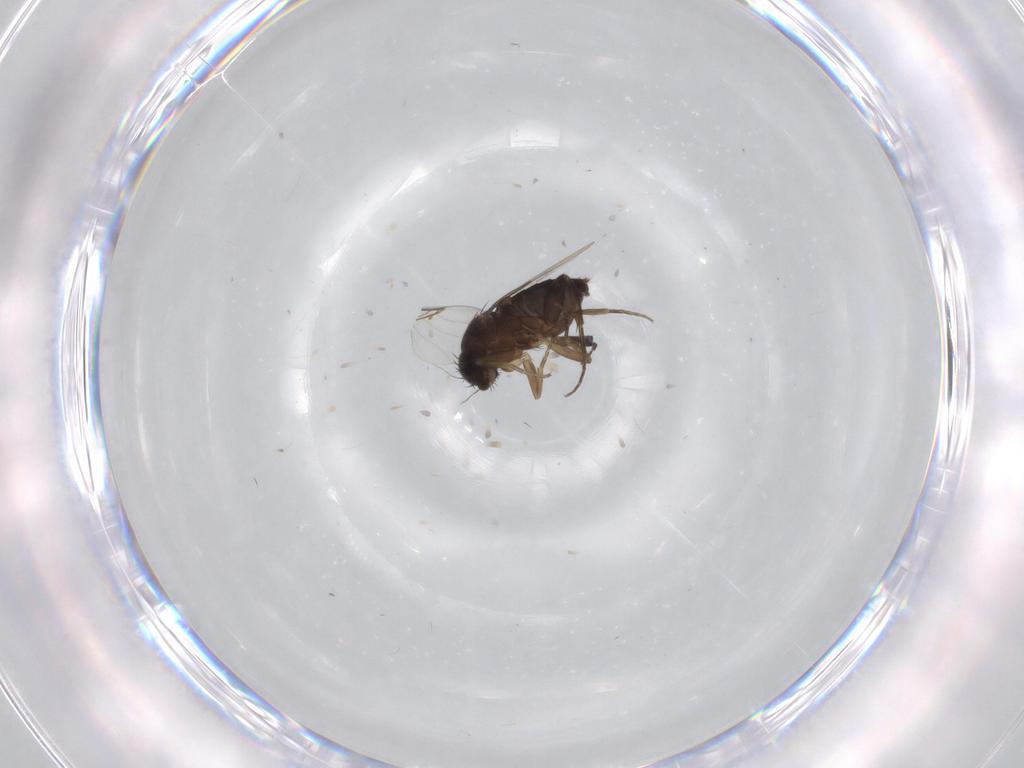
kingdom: Animalia
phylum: Arthropoda
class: Insecta
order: Diptera
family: Phoridae
